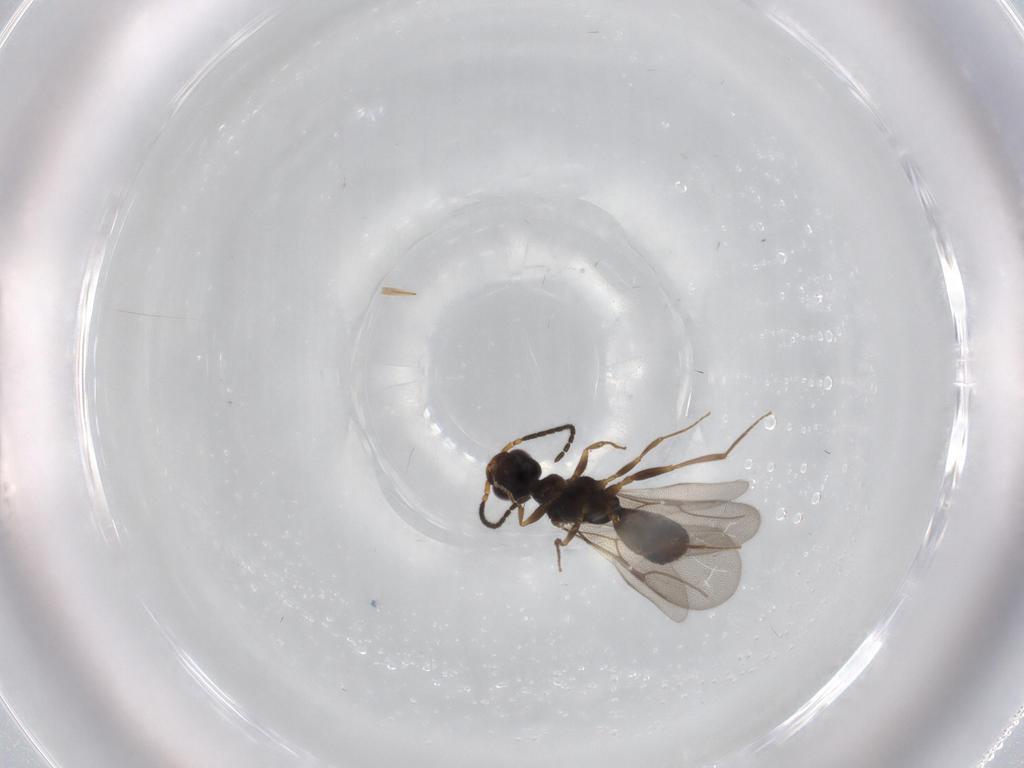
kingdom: Animalia
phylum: Arthropoda
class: Insecta
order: Hymenoptera
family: Bethylidae
